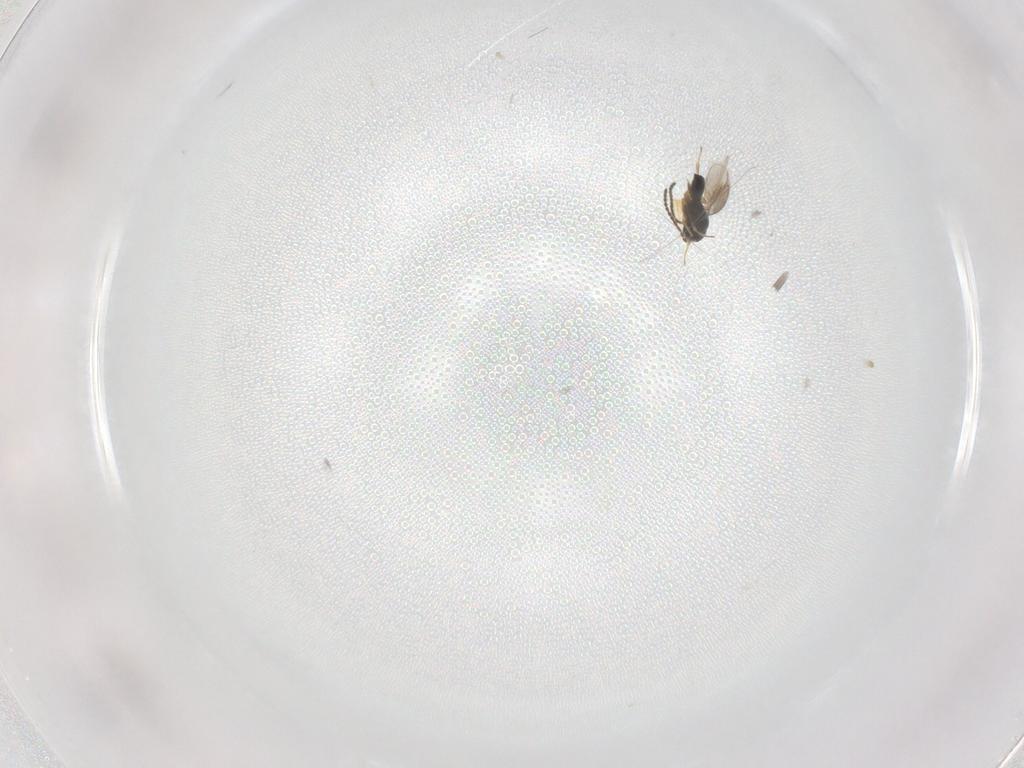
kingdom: Animalia
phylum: Arthropoda
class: Insecta
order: Hymenoptera
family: Scelionidae
